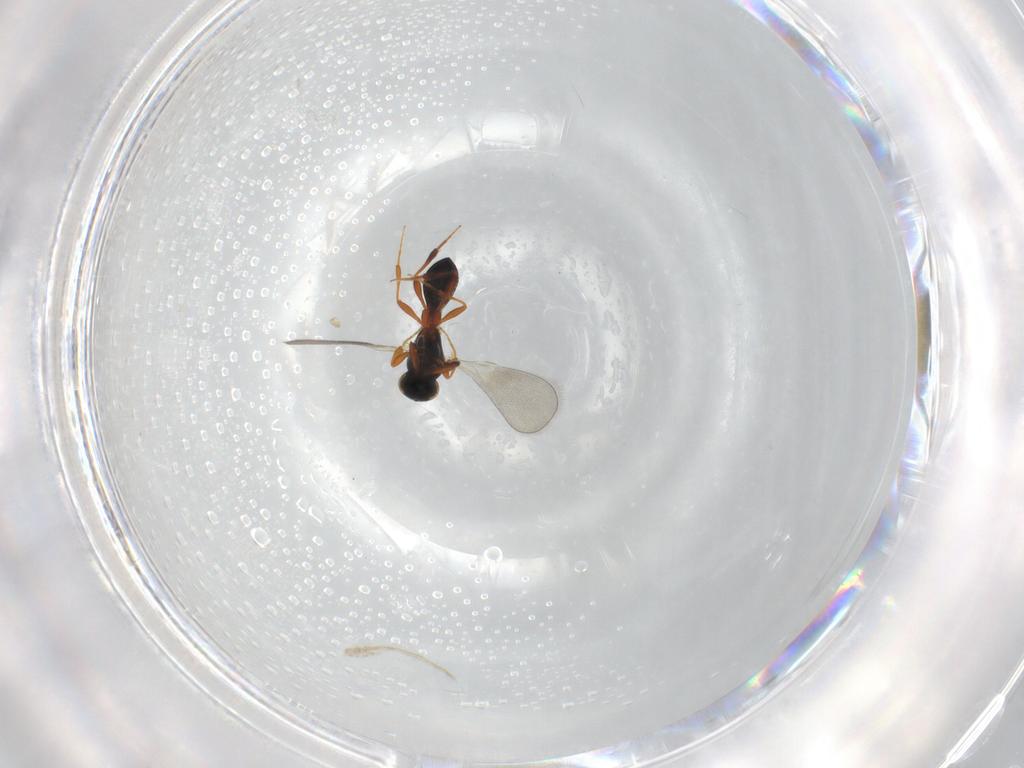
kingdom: Animalia
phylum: Arthropoda
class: Insecta
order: Hymenoptera
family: Platygastridae
